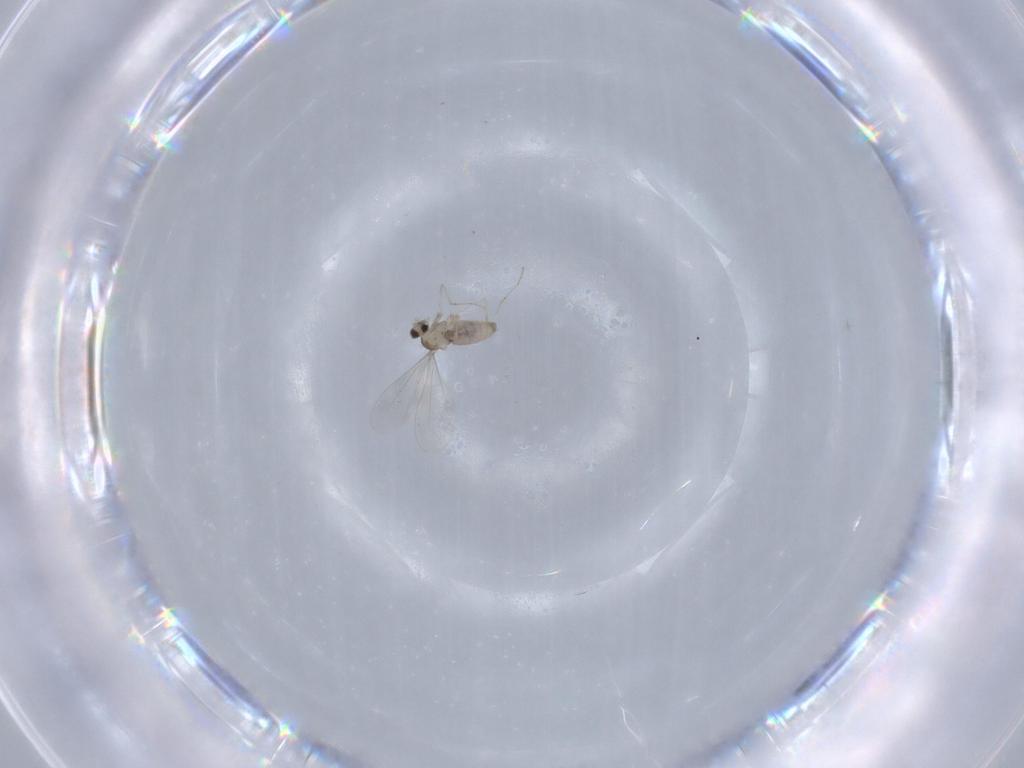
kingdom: Animalia
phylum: Arthropoda
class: Insecta
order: Diptera
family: Cecidomyiidae
